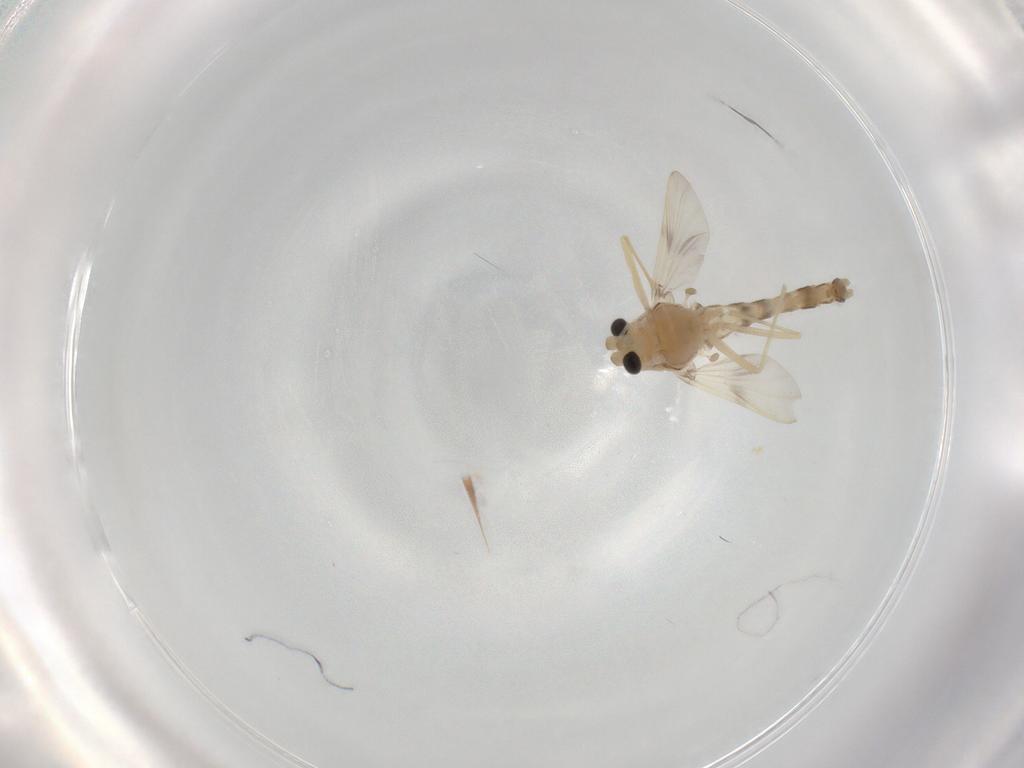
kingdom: Animalia
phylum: Arthropoda
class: Insecta
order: Diptera
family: Chironomidae
